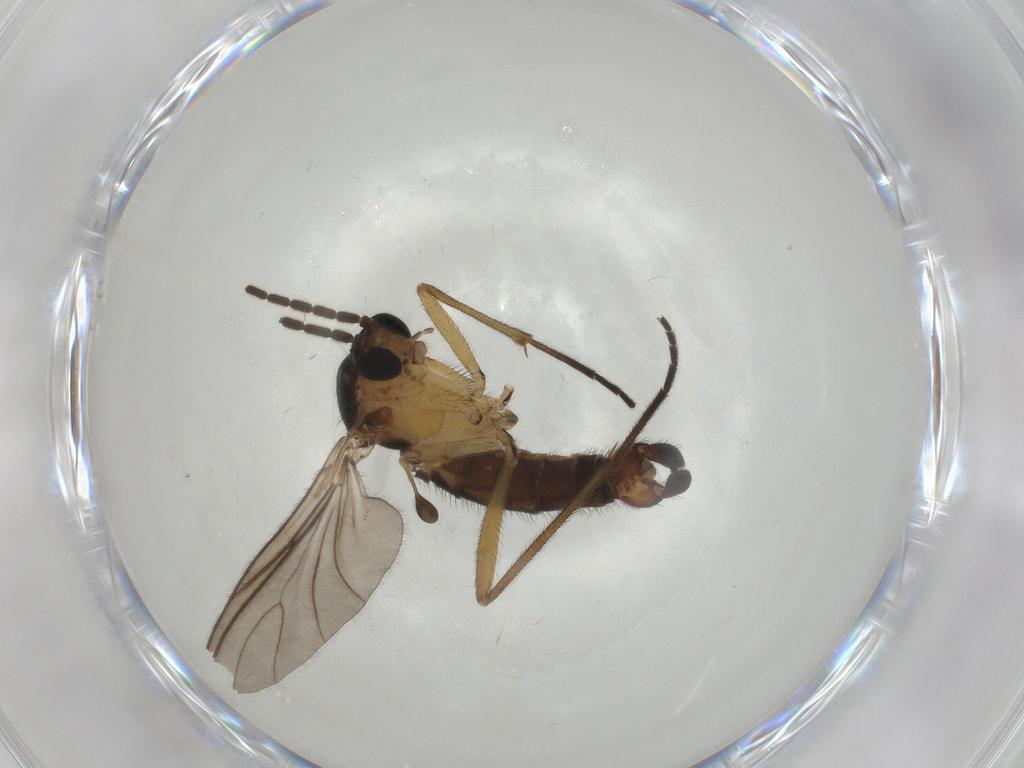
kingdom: Animalia
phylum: Arthropoda
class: Insecta
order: Diptera
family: Sciaridae
